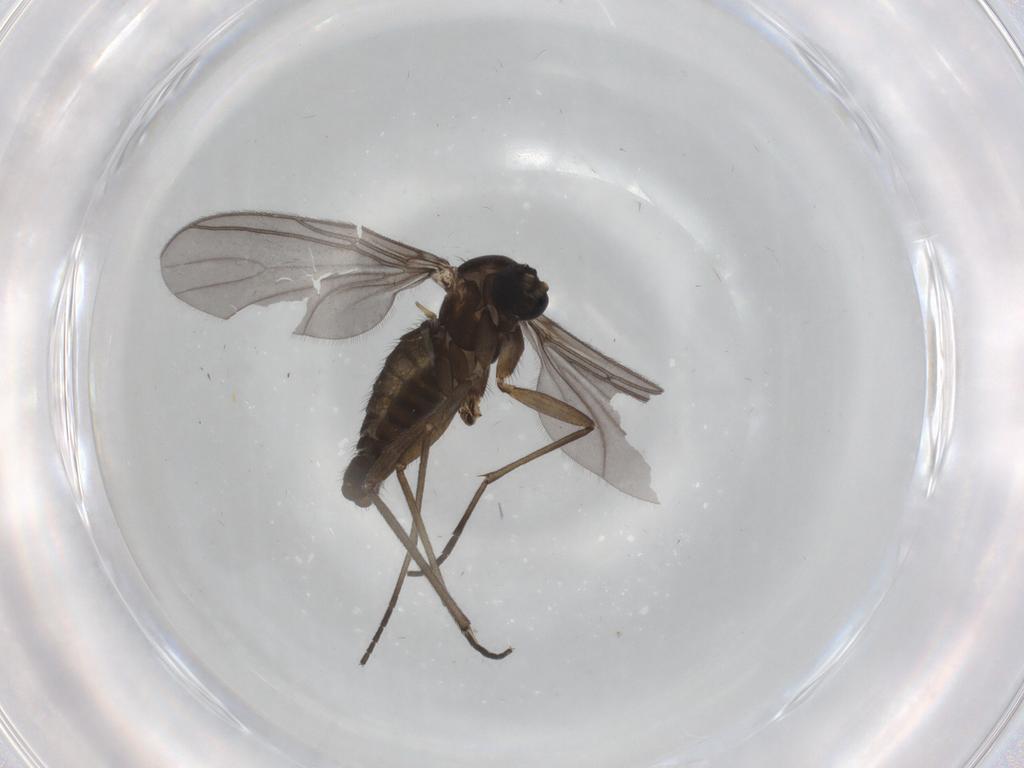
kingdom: Animalia
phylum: Arthropoda
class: Insecta
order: Diptera
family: Sciaridae
